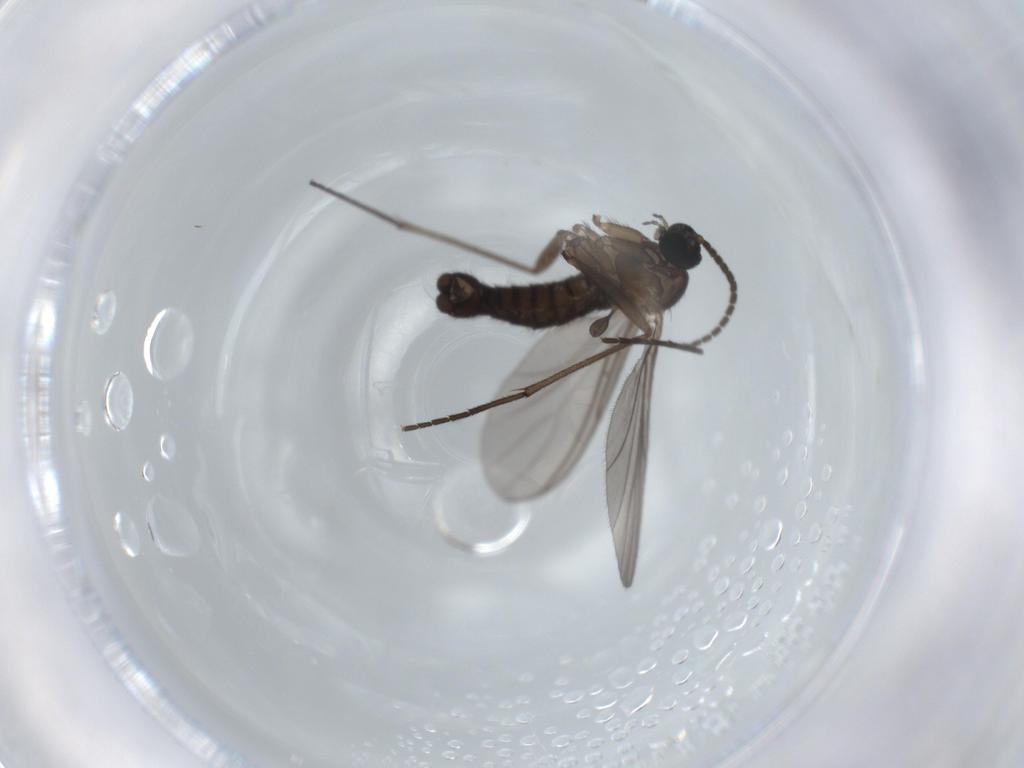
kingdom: Animalia
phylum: Arthropoda
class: Insecta
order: Diptera
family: Sciaridae
